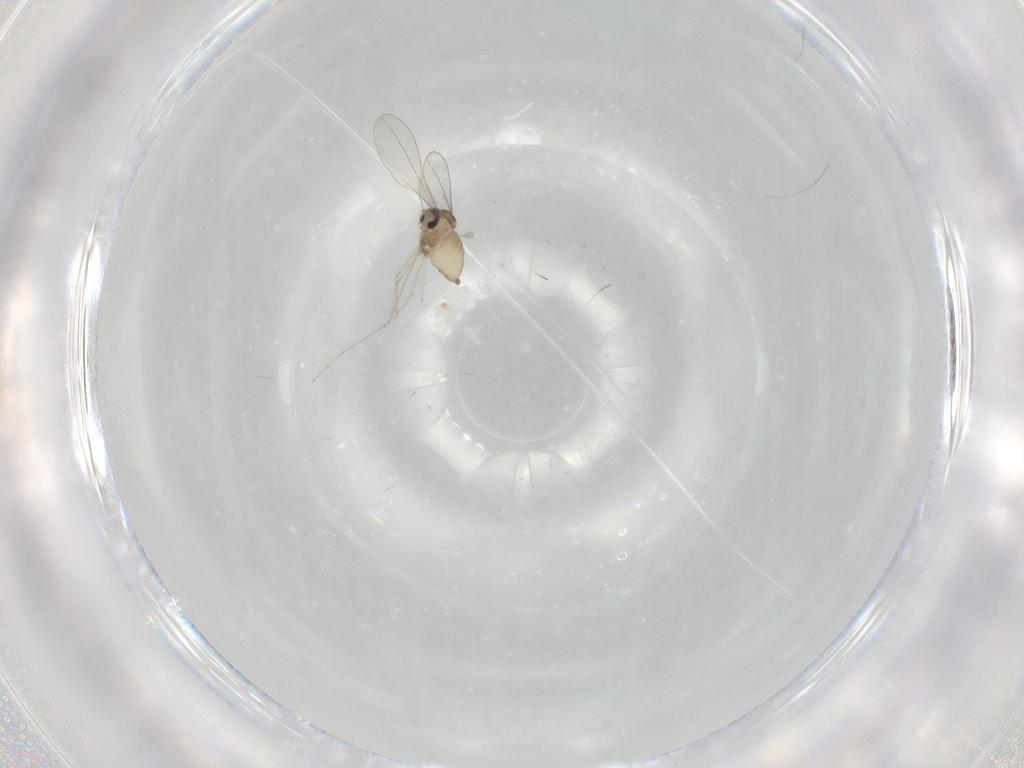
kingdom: Animalia
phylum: Arthropoda
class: Insecta
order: Diptera
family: Cecidomyiidae
